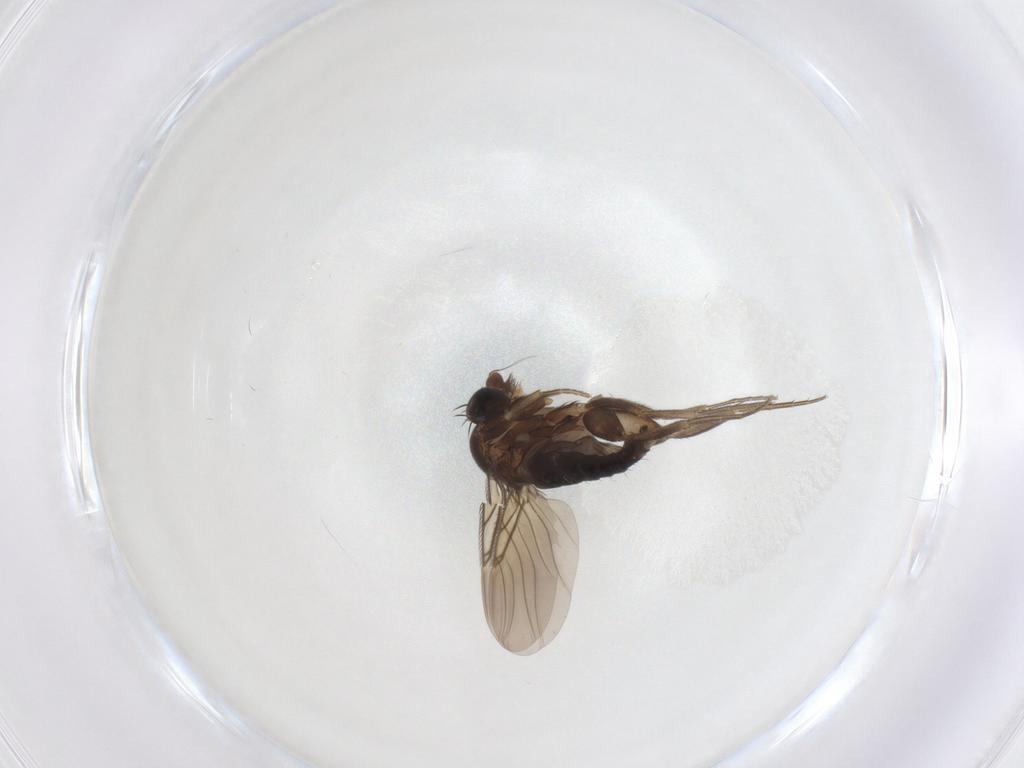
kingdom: Animalia
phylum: Arthropoda
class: Insecta
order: Diptera
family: Phoridae
